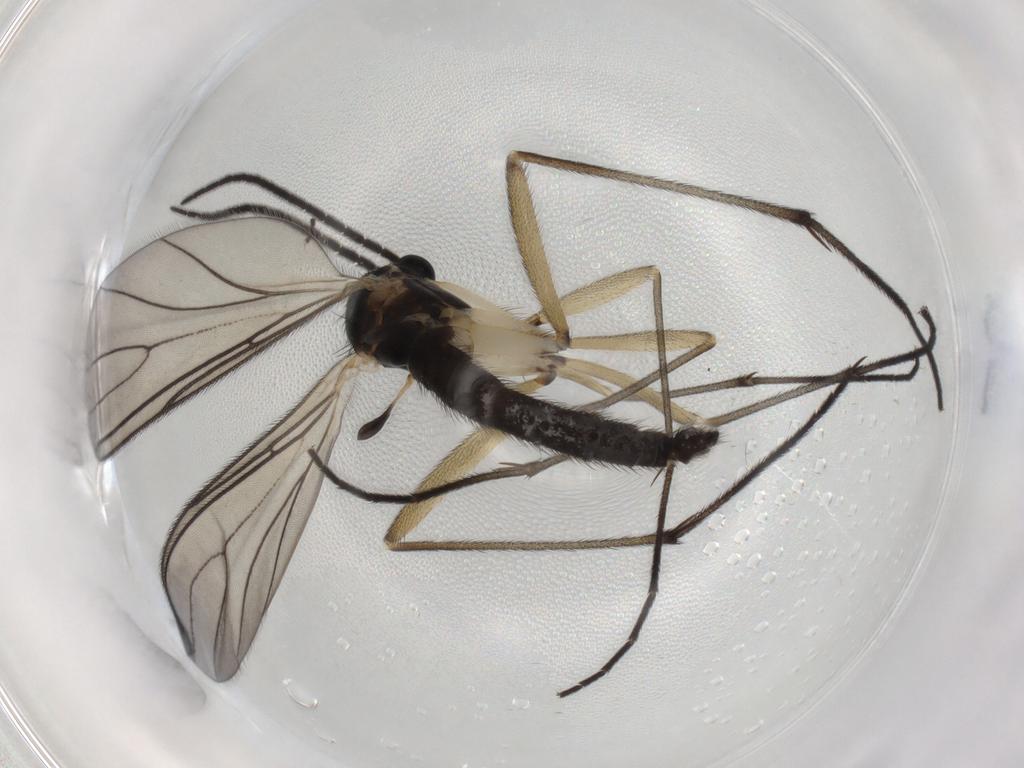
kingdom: Animalia
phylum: Arthropoda
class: Insecta
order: Diptera
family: Sciaridae
